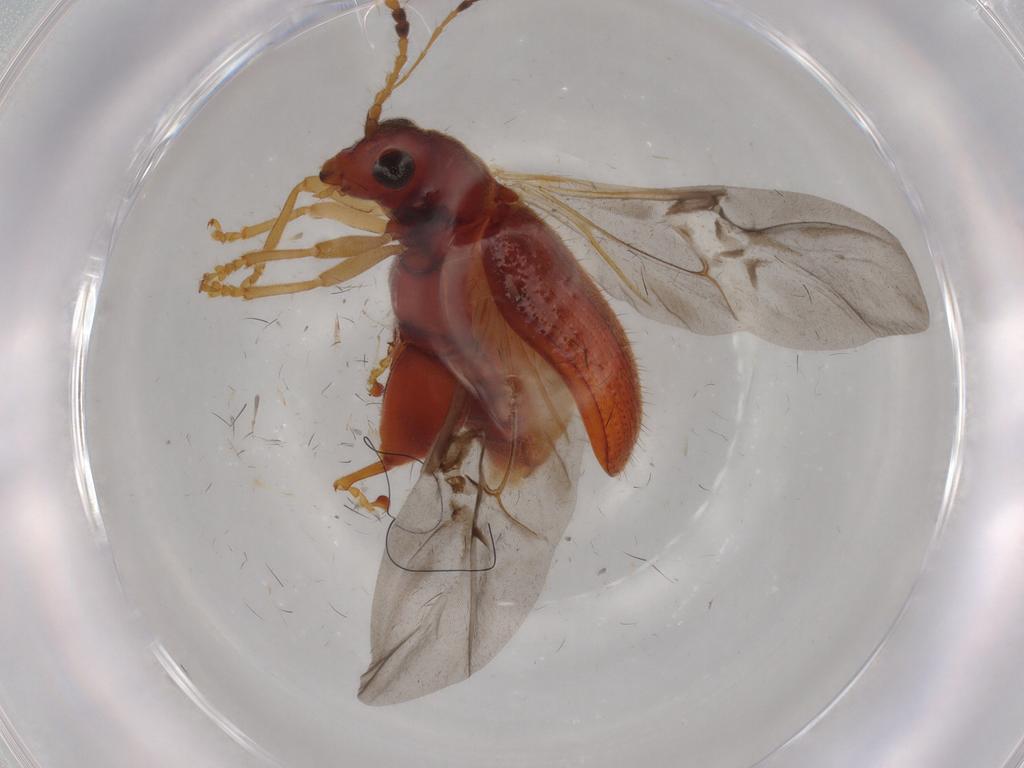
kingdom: Animalia
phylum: Arthropoda
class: Insecta
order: Coleoptera
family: Chrysomelidae
